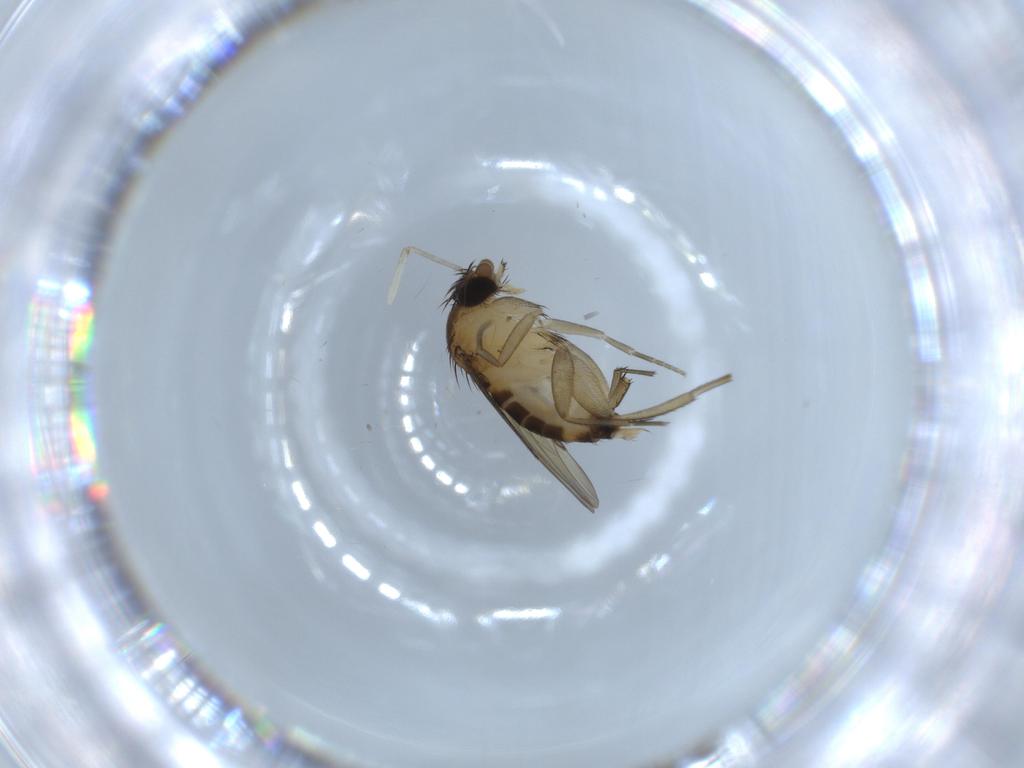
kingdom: Animalia
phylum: Arthropoda
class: Insecta
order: Diptera
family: Chironomidae
